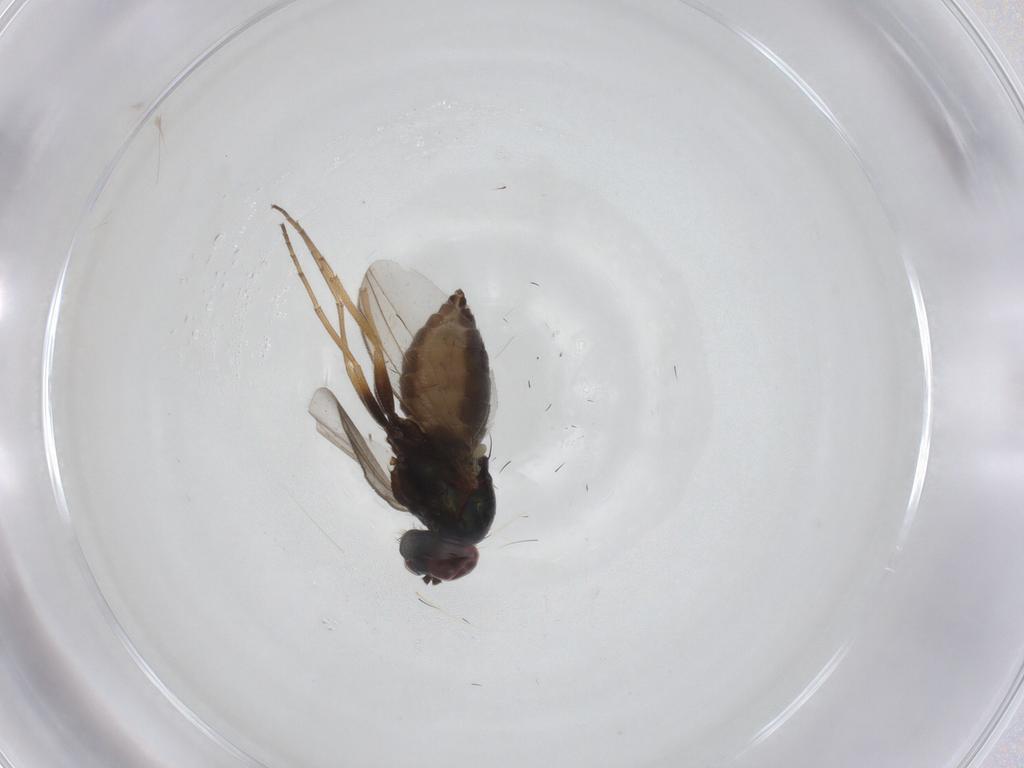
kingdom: Animalia
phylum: Arthropoda
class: Insecta
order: Diptera
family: Dolichopodidae
